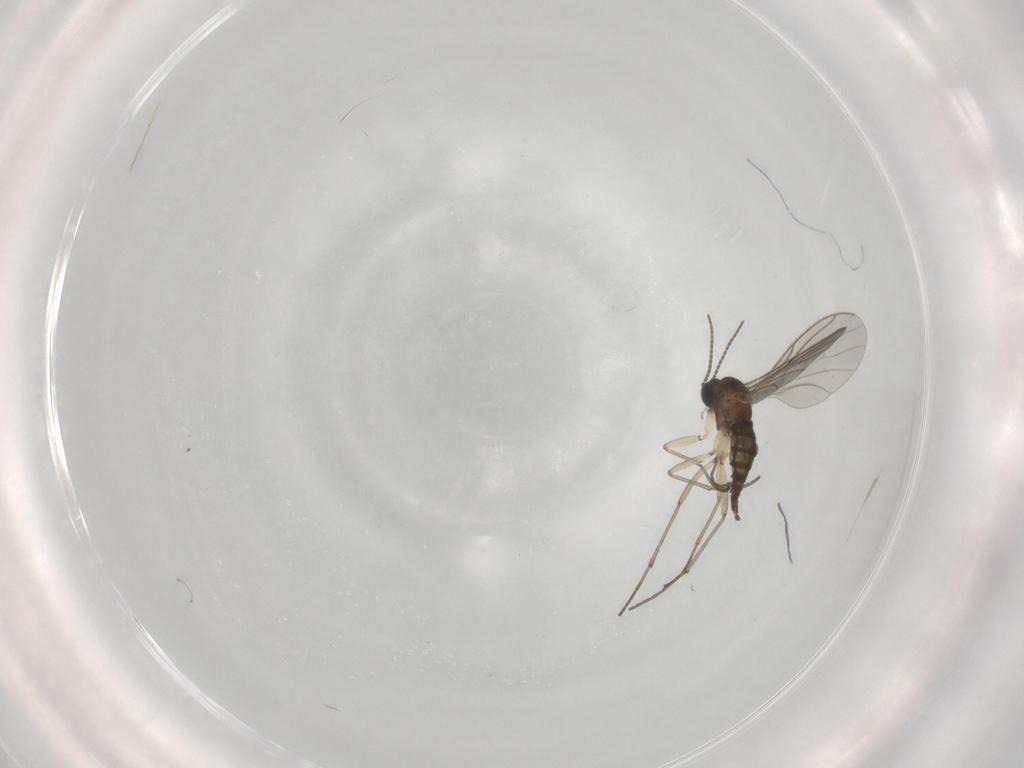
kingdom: Animalia
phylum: Arthropoda
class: Insecta
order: Diptera
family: Sciaridae
